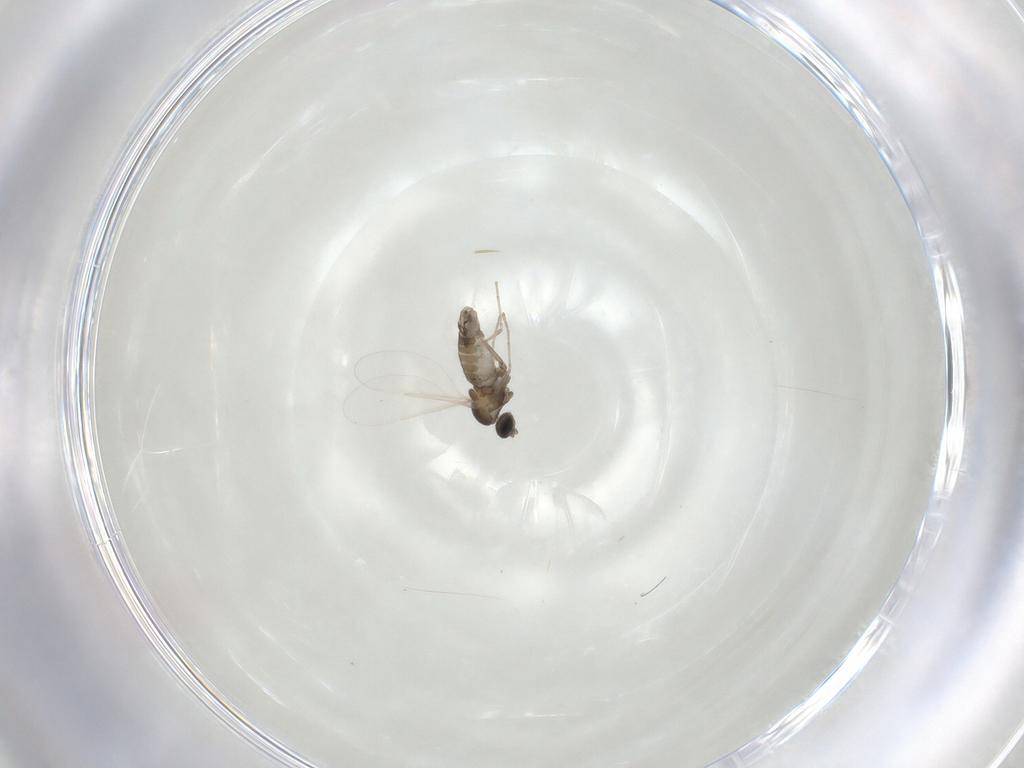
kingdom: Animalia
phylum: Arthropoda
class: Insecta
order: Diptera
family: Cecidomyiidae
